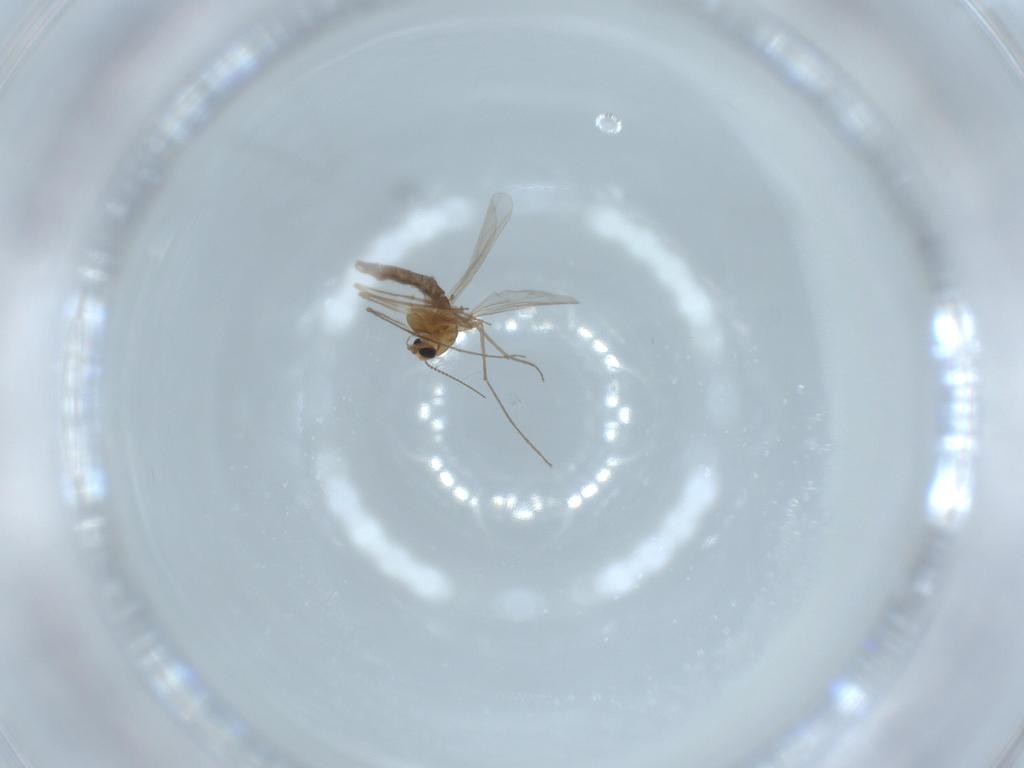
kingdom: Animalia
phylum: Arthropoda
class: Insecta
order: Diptera
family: Chironomidae
